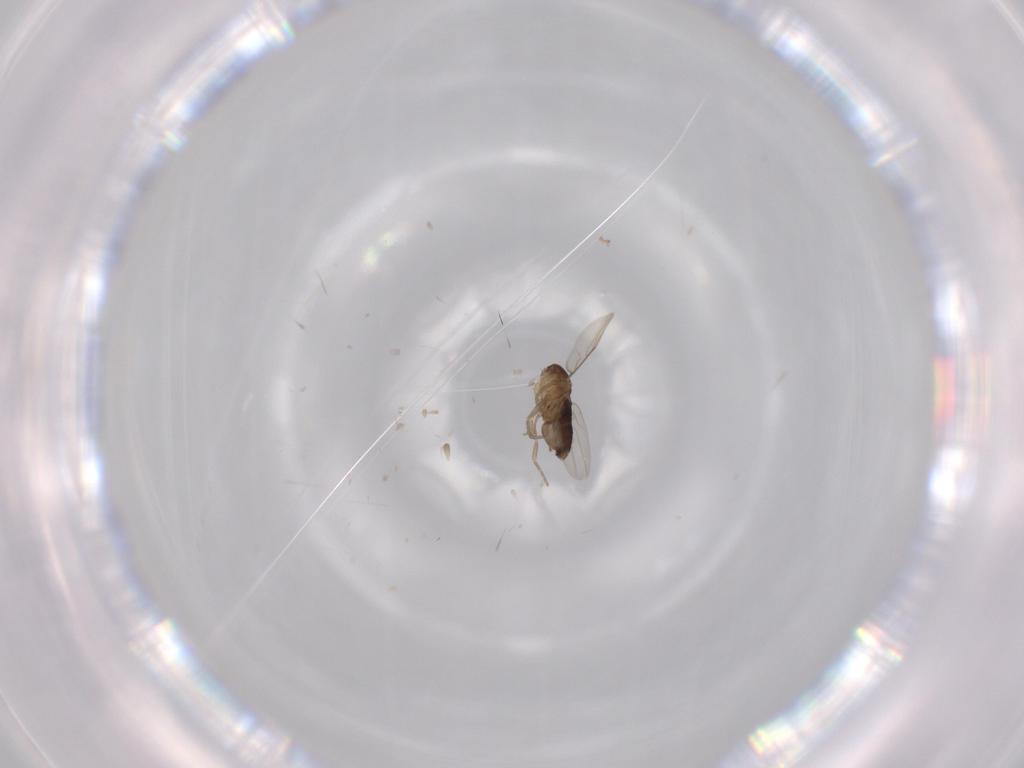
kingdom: Animalia
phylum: Arthropoda
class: Insecta
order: Diptera
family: Phoridae
